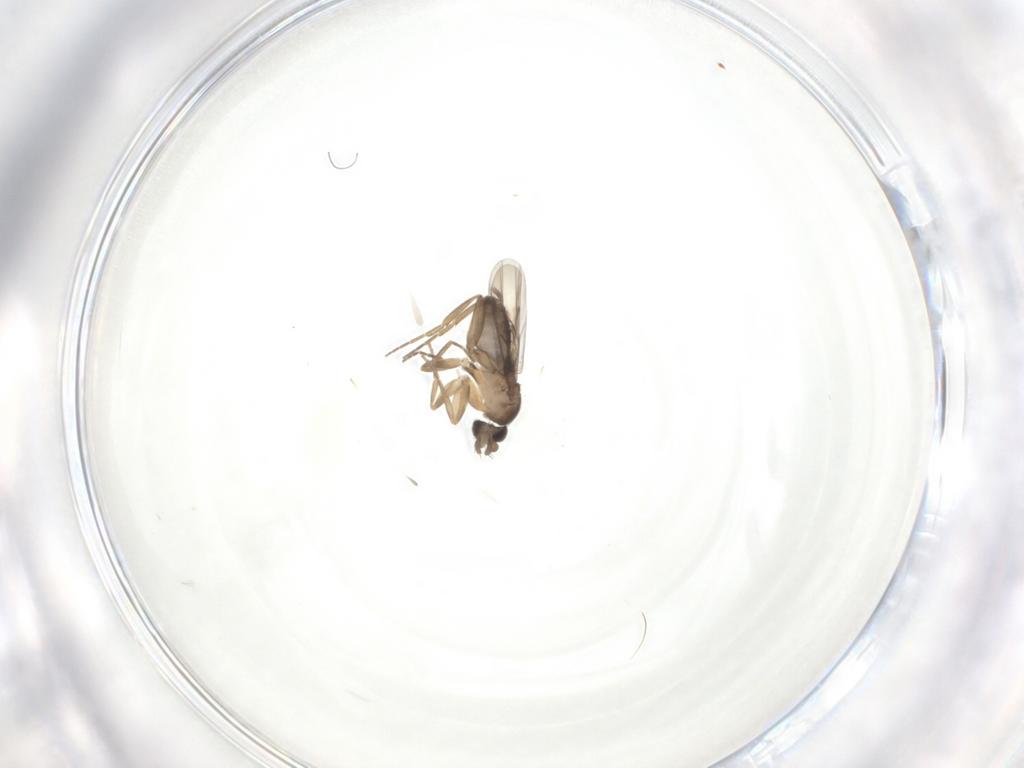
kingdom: Animalia
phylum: Arthropoda
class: Insecta
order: Diptera
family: Phoridae
